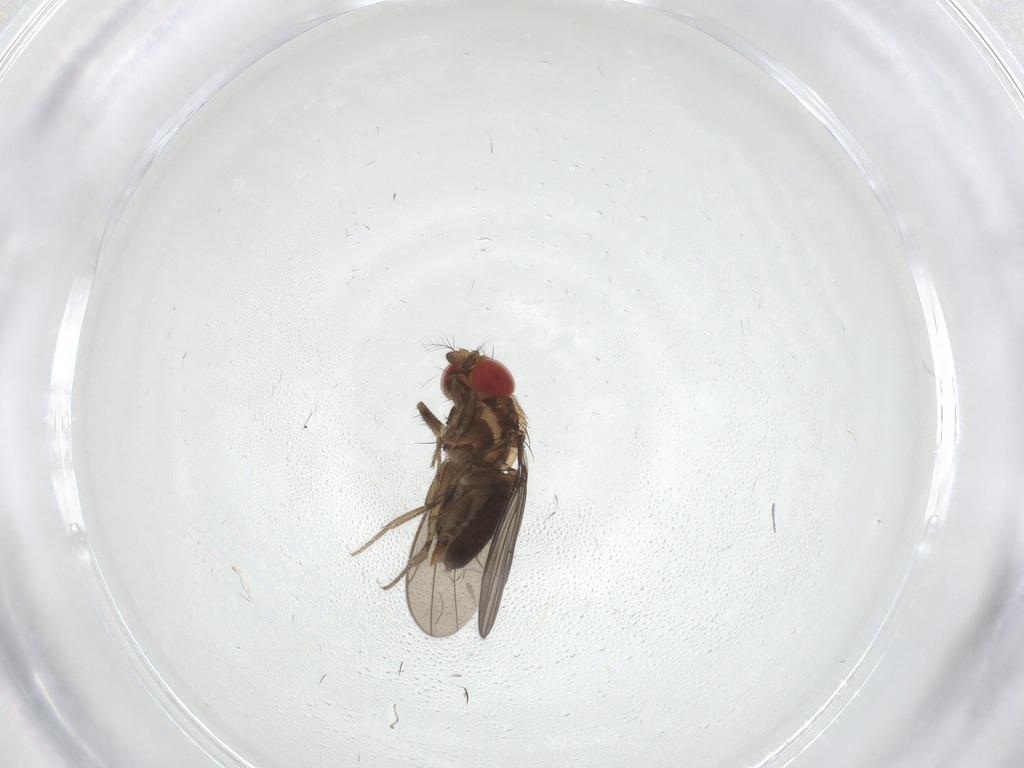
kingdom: Animalia
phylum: Arthropoda
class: Insecta
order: Diptera
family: Drosophilidae
